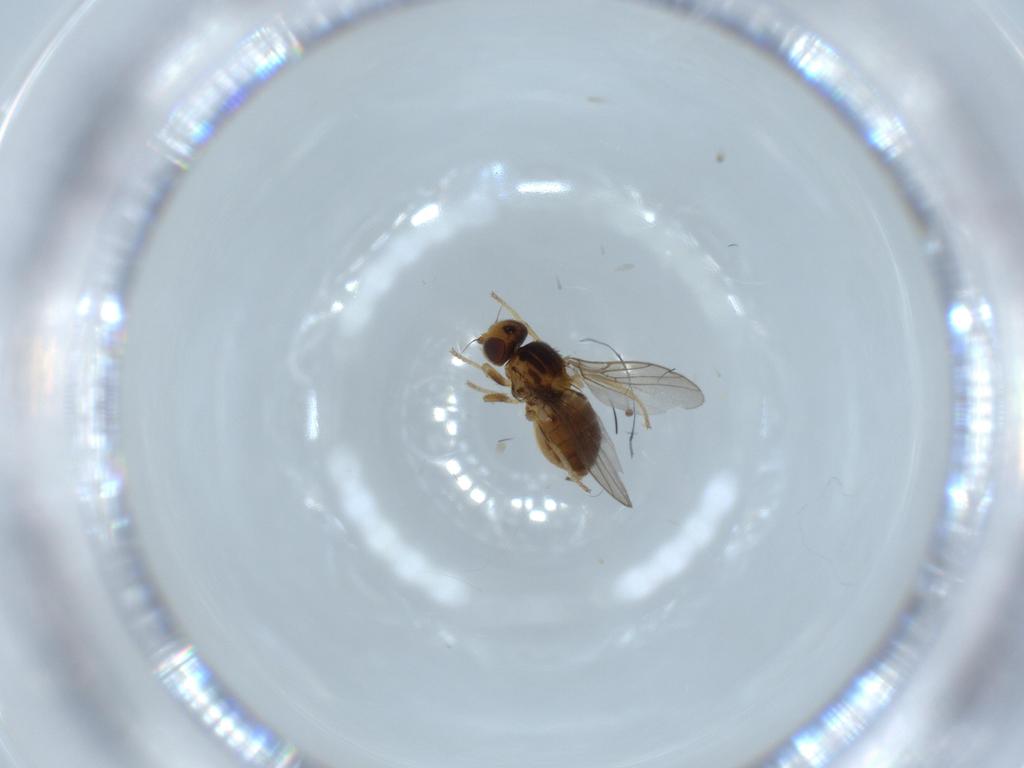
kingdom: Animalia
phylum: Arthropoda
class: Insecta
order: Diptera
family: Chloropidae
